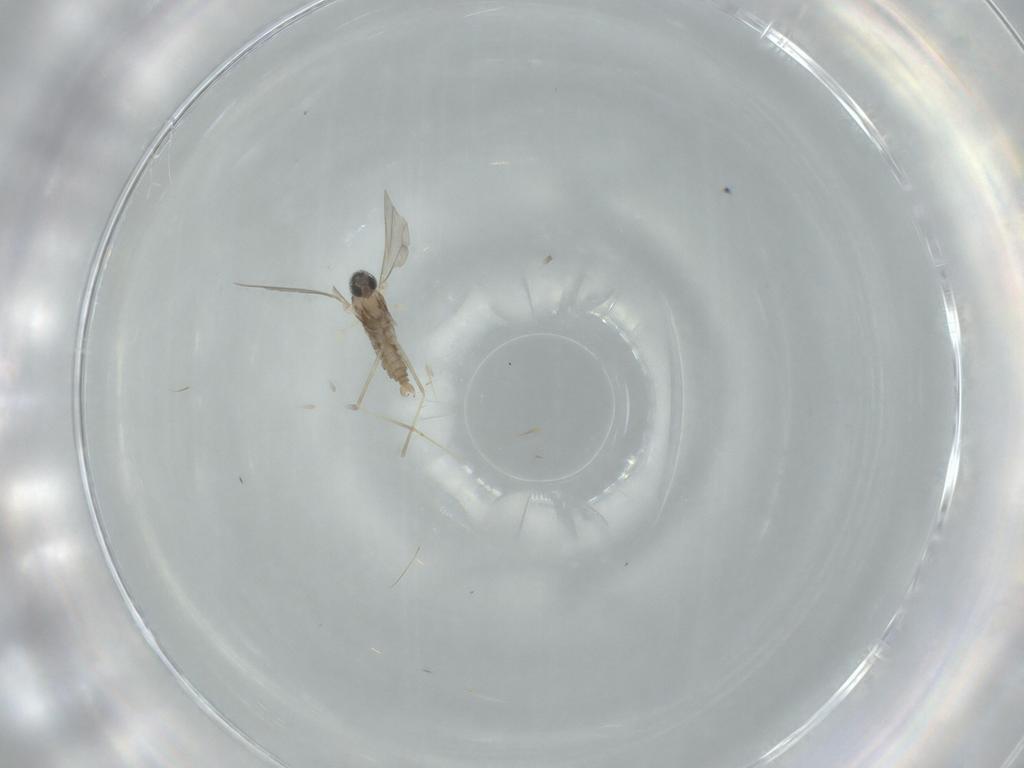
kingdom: Animalia
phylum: Arthropoda
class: Insecta
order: Diptera
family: Cecidomyiidae
